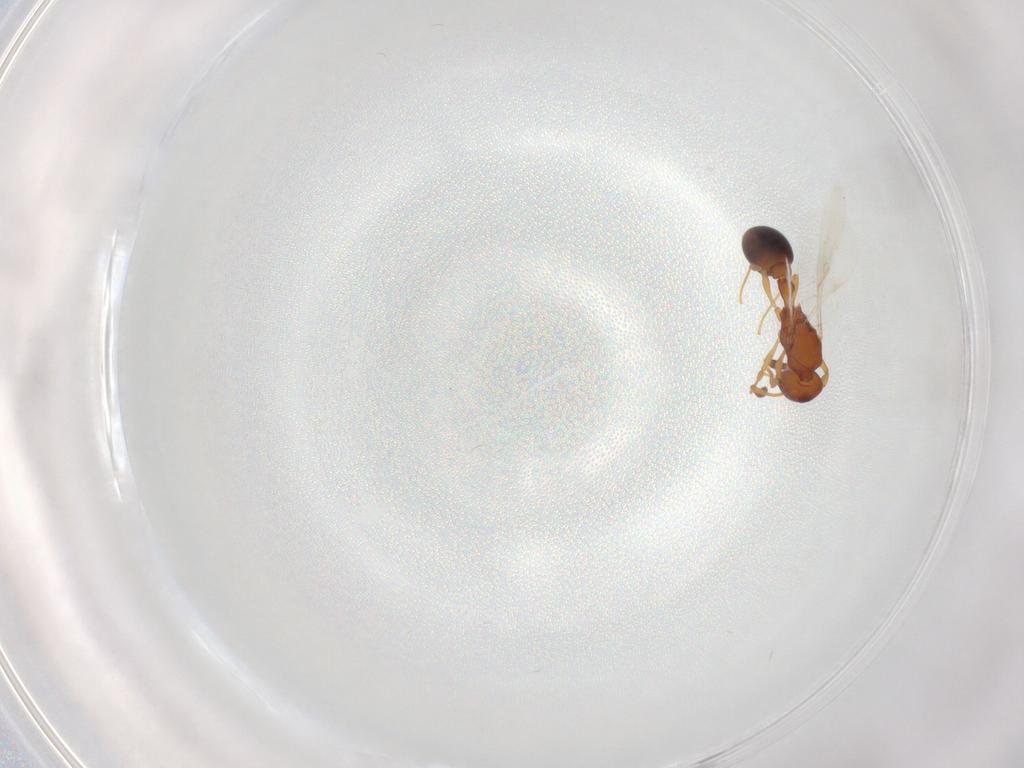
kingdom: Animalia
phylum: Arthropoda
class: Insecta
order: Hymenoptera
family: Formicidae
